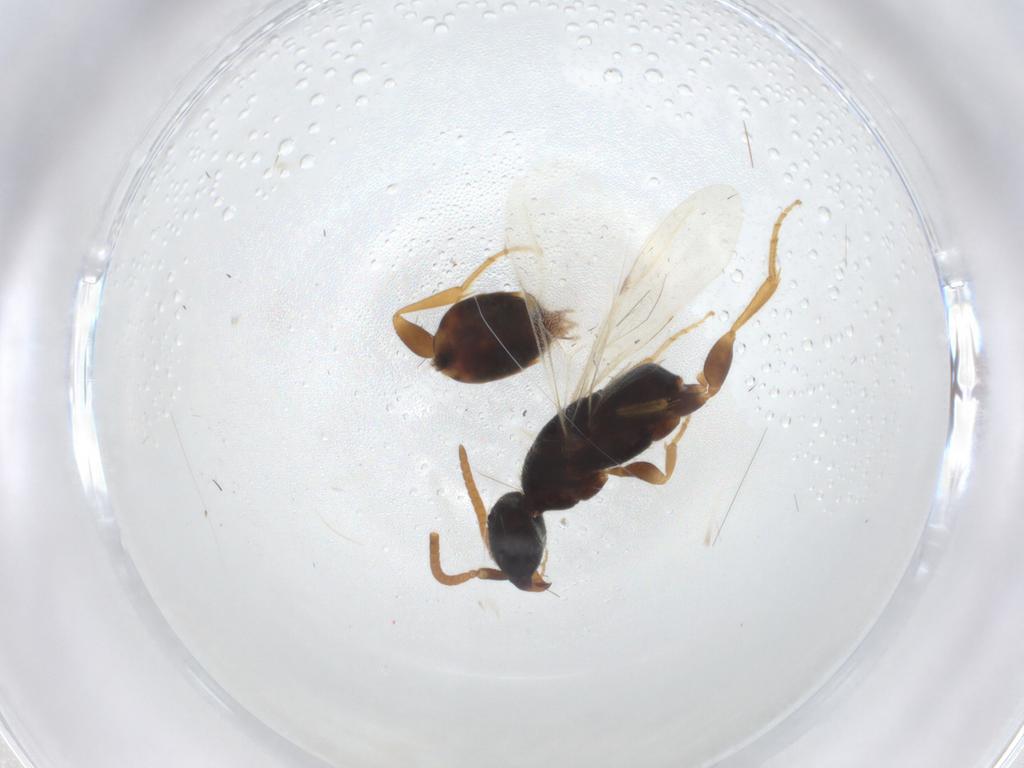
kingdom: Animalia
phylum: Arthropoda
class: Insecta
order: Hymenoptera
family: Bethylidae
